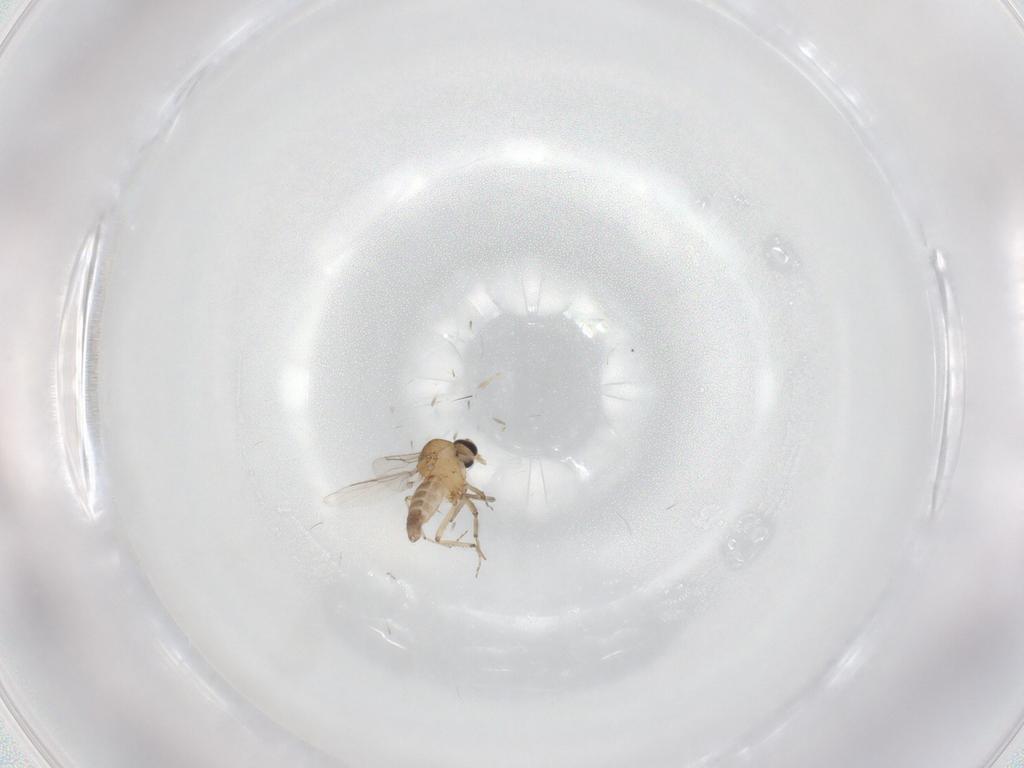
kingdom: Animalia
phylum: Arthropoda
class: Insecta
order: Diptera
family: Ceratopogonidae
